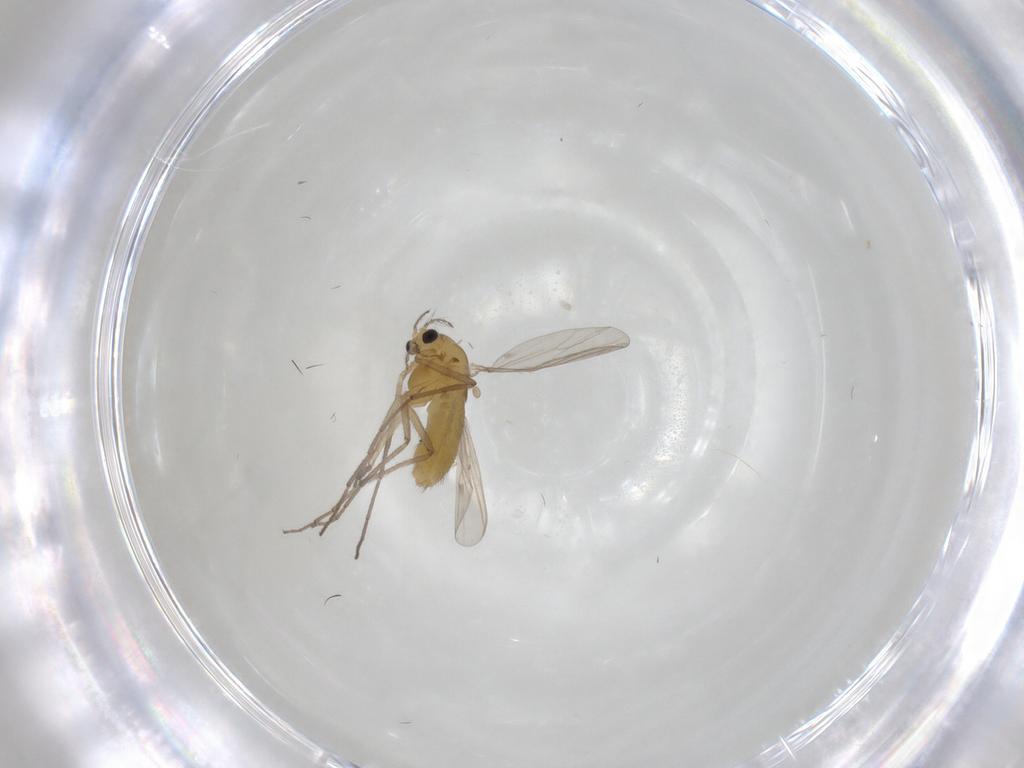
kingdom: Animalia
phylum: Arthropoda
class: Insecta
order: Diptera
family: Chironomidae
